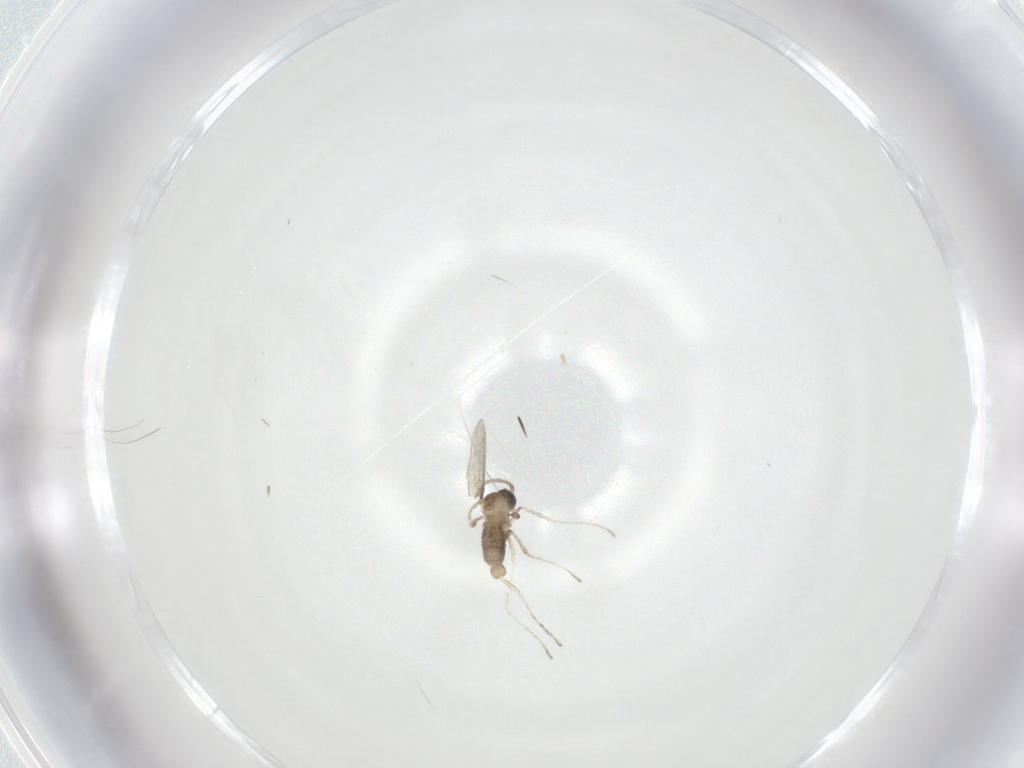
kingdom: Animalia
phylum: Arthropoda
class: Insecta
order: Diptera
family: Cecidomyiidae
